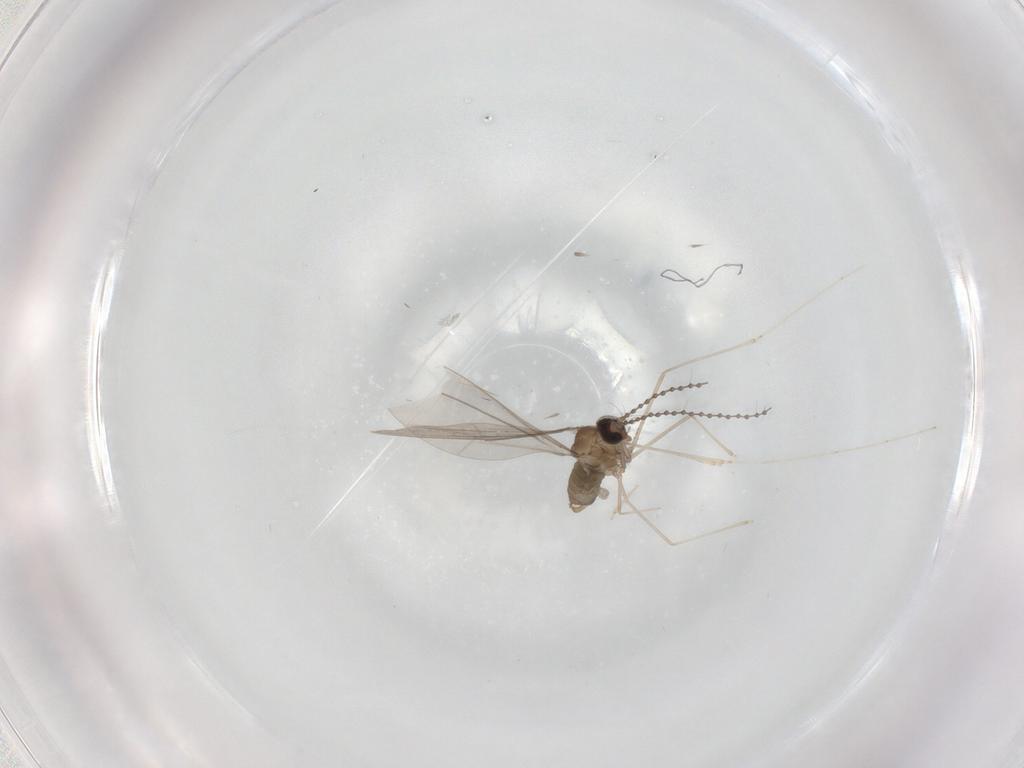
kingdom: Animalia
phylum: Arthropoda
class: Insecta
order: Diptera
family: Cecidomyiidae
